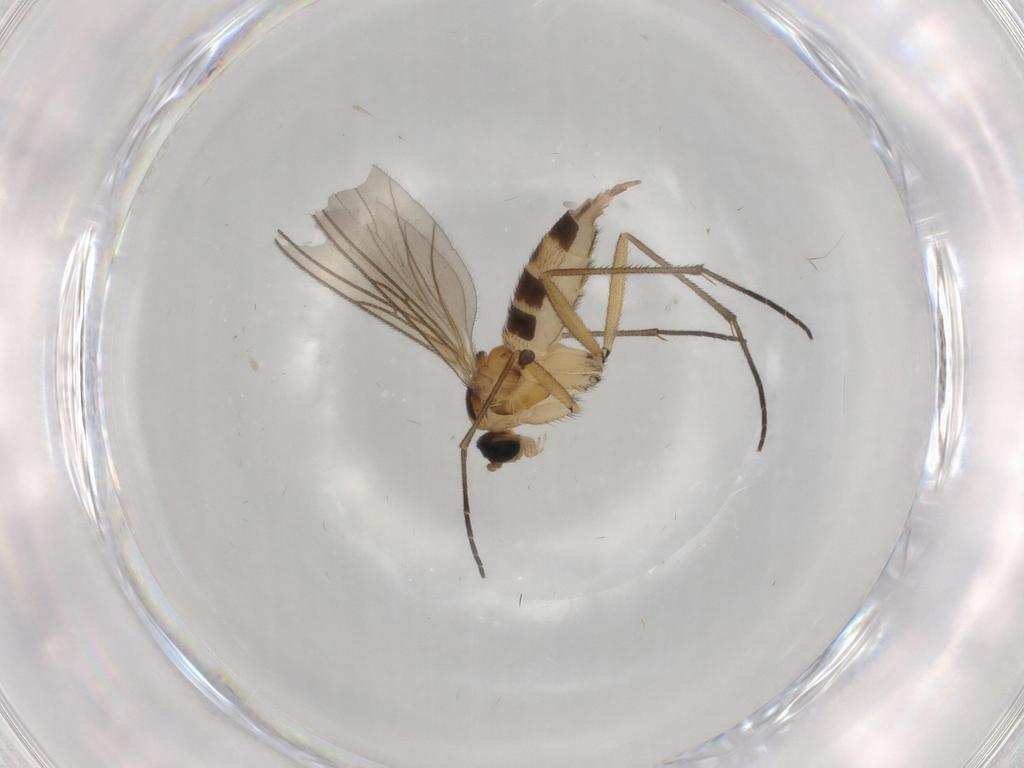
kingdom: Animalia
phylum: Arthropoda
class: Insecta
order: Diptera
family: Sciaridae
